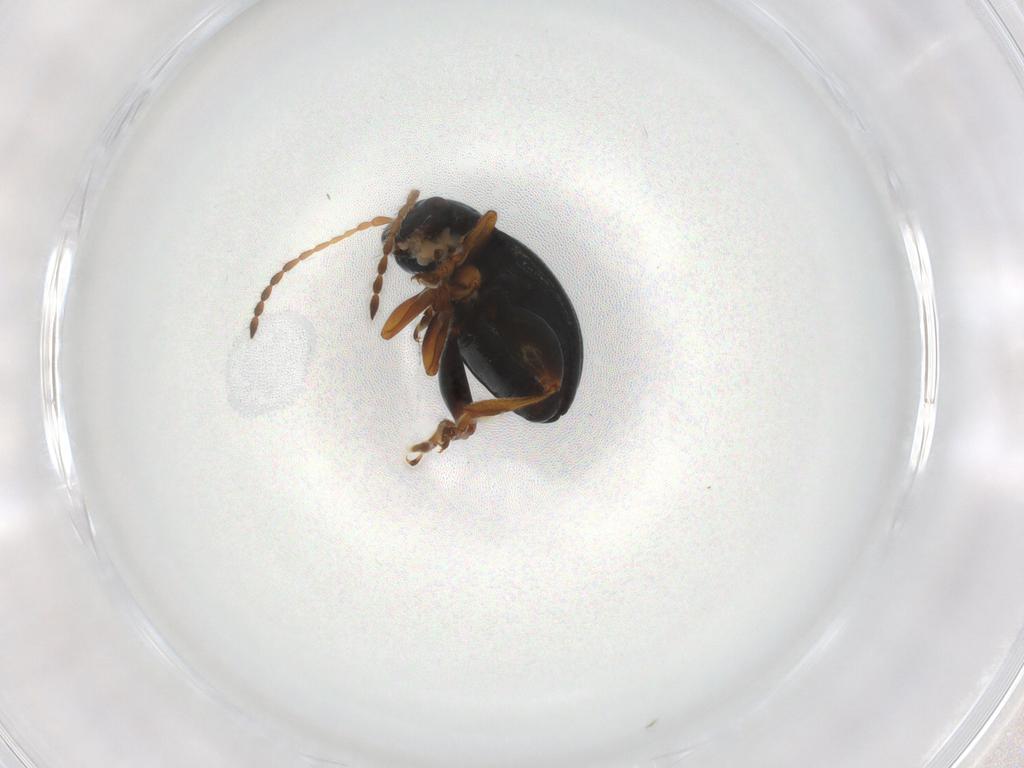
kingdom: Animalia
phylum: Arthropoda
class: Insecta
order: Coleoptera
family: Chrysomelidae
